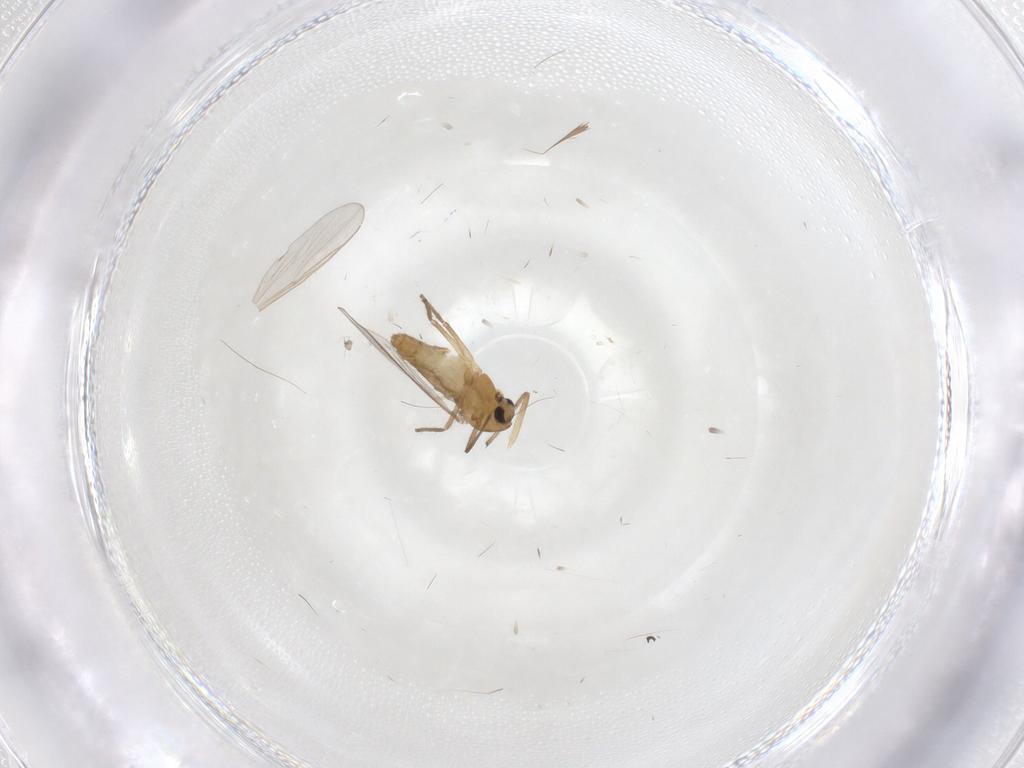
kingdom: Animalia
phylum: Arthropoda
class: Insecta
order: Diptera
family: Chironomidae
